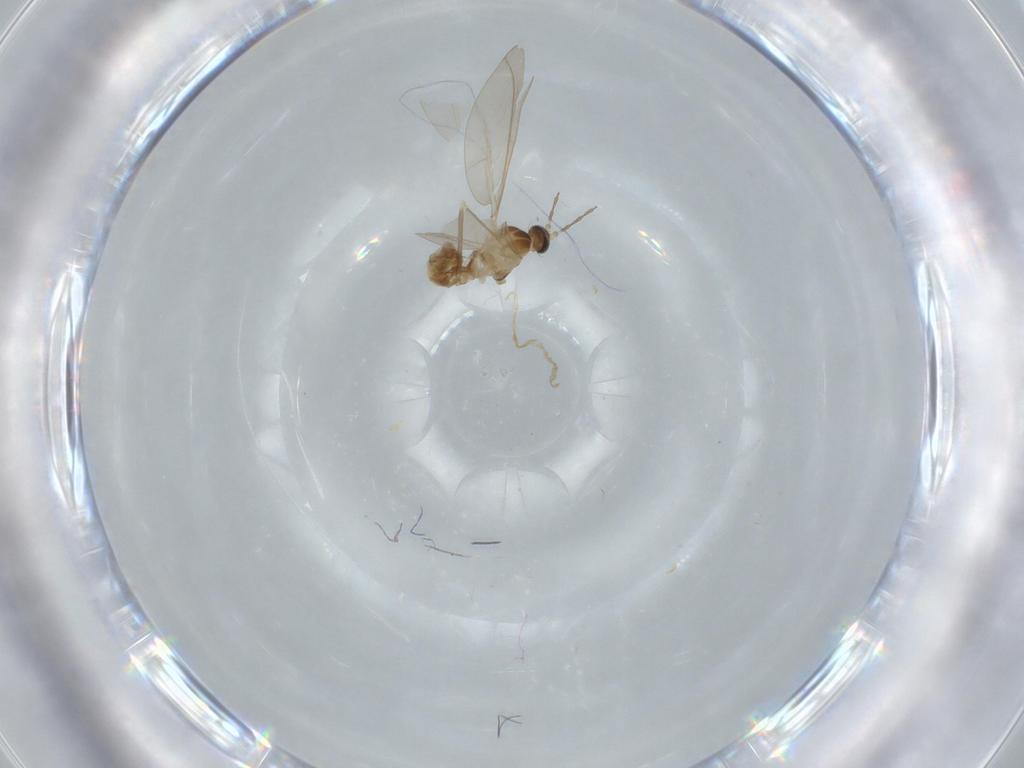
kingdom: Animalia
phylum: Arthropoda
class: Insecta
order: Diptera
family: Cecidomyiidae
